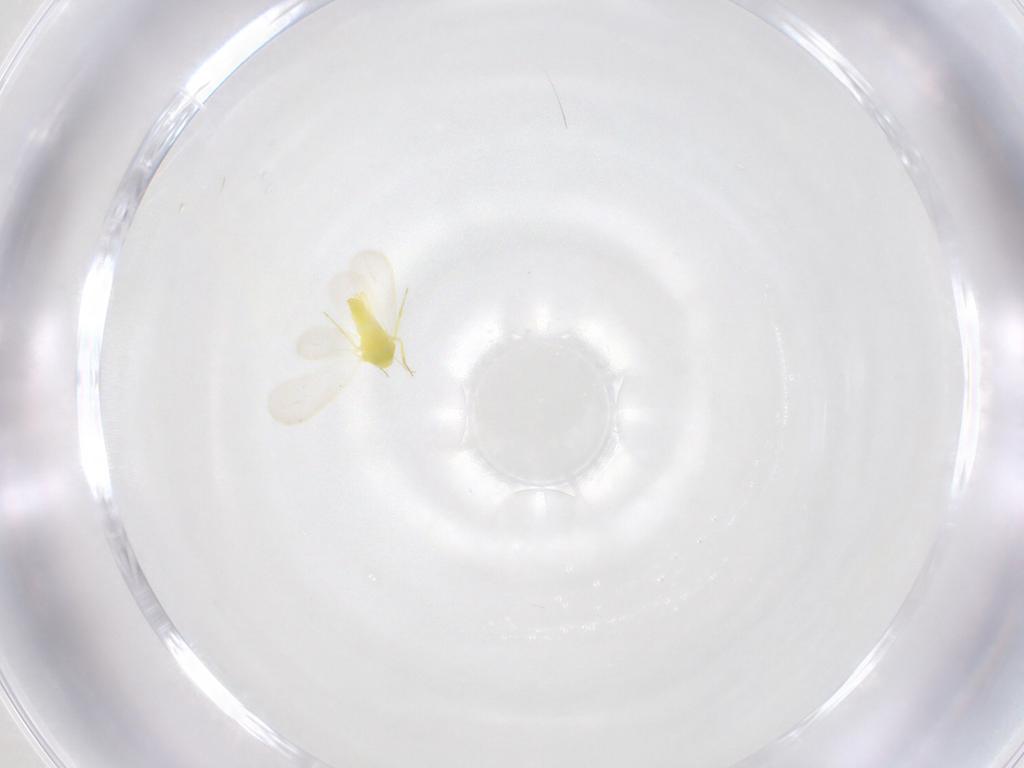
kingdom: Animalia
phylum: Arthropoda
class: Insecta
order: Hemiptera
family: Aleyrodidae
